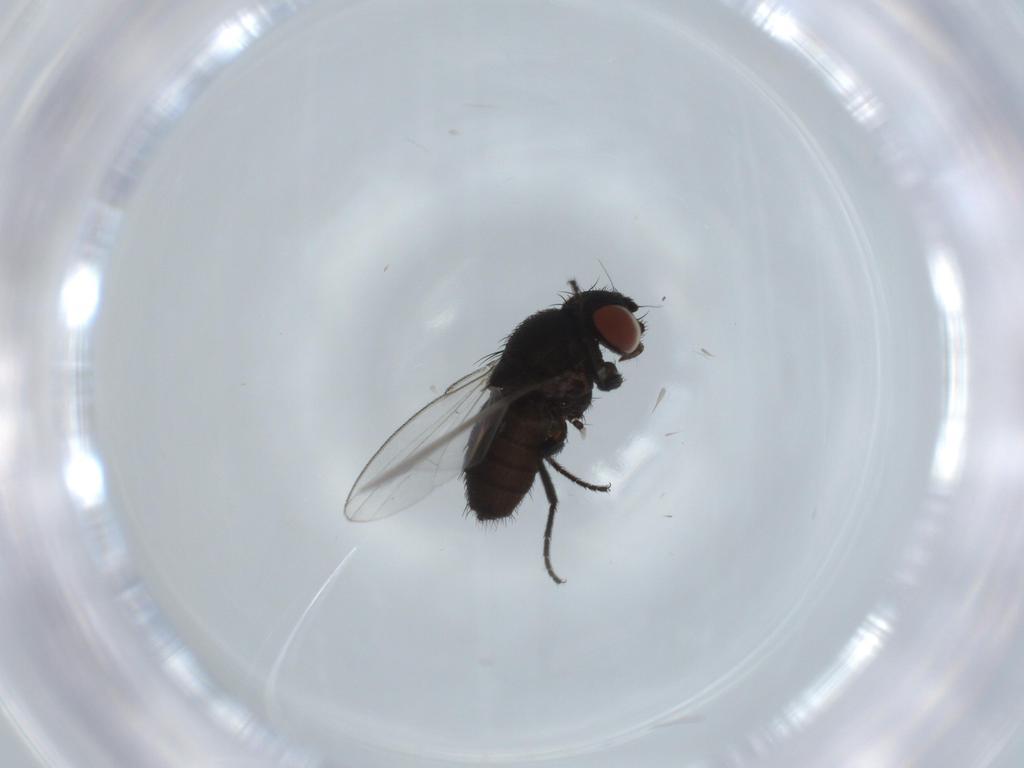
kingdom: Animalia
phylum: Arthropoda
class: Insecta
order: Diptera
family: Milichiidae
